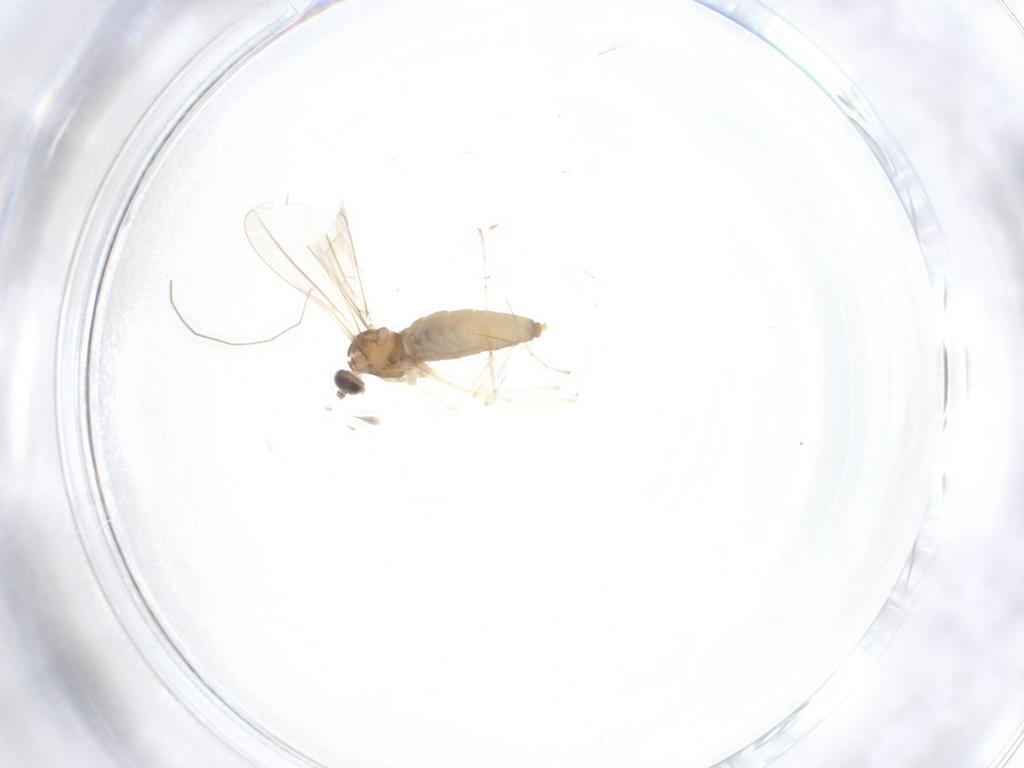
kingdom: Animalia
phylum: Arthropoda
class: Insecta
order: Diptera
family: Cecidomyiidae
